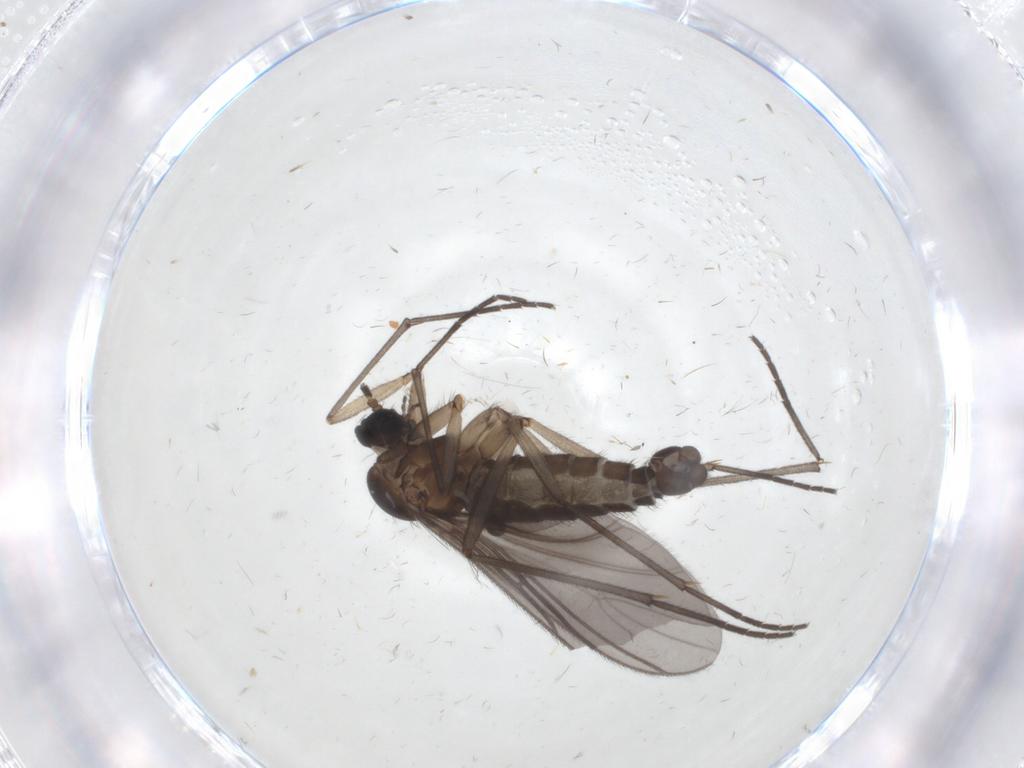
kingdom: Animalia
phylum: Arthropoda
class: Insecta
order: Diptera
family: Sciaridae
